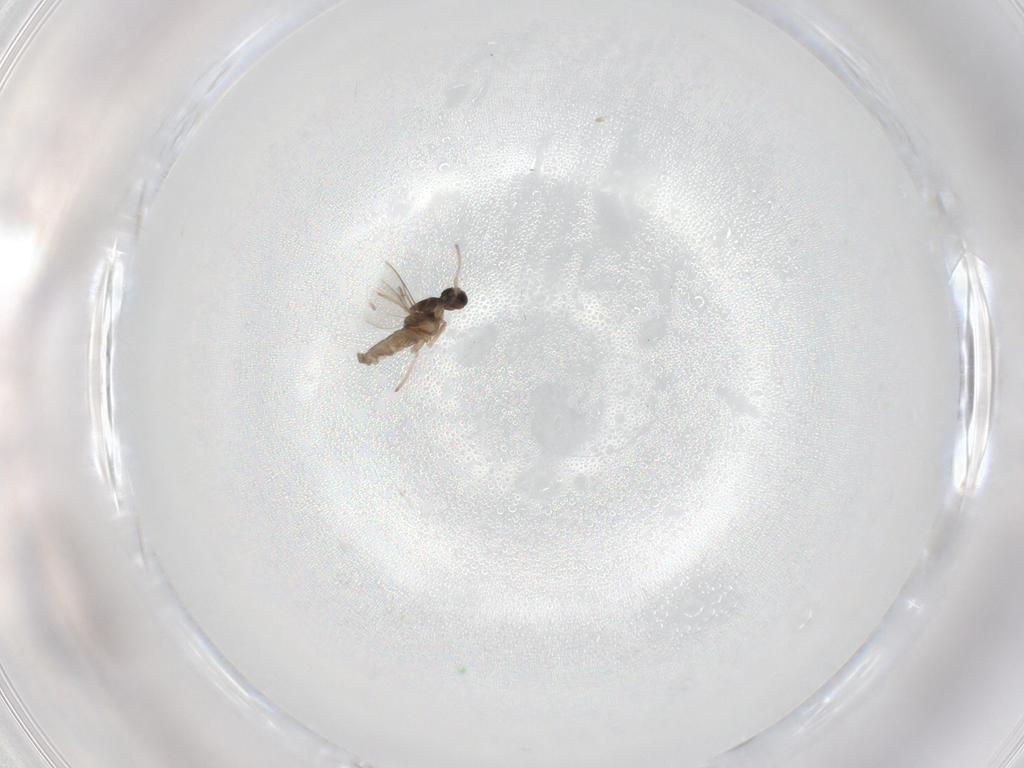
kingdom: Animalia
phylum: Arthropoda
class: Insecta
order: Diptera
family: Cecidomyiidae
